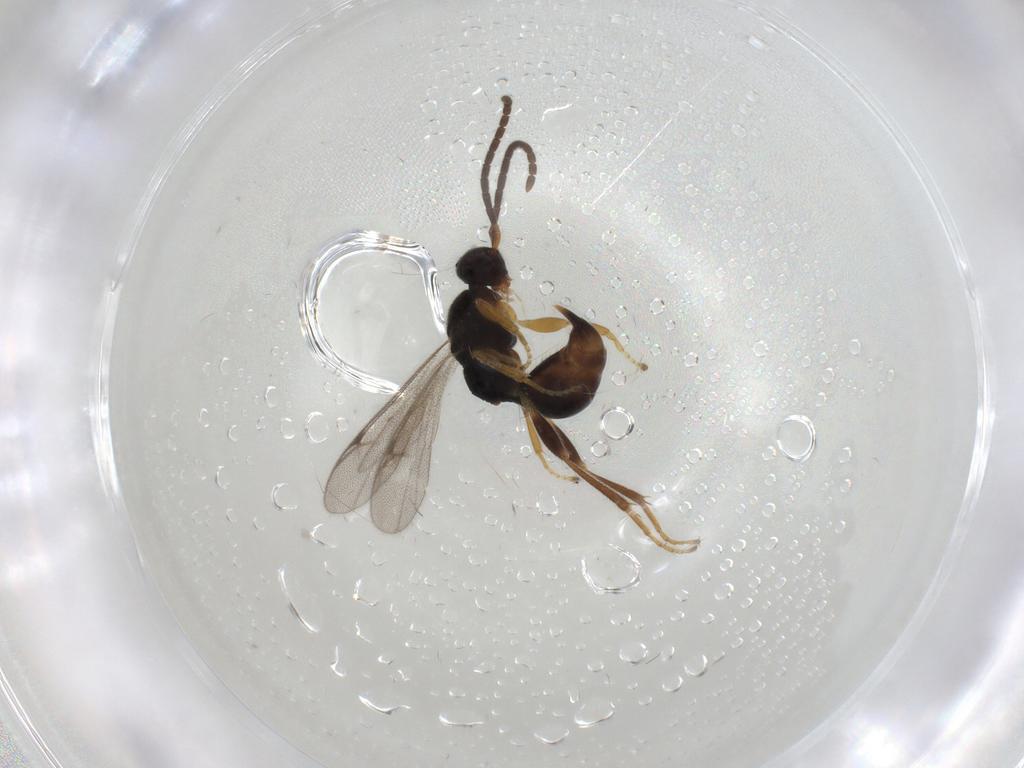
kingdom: Animalia
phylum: Arthropoda
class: Insecta
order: Hymenoptera
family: Proctotrupidae
